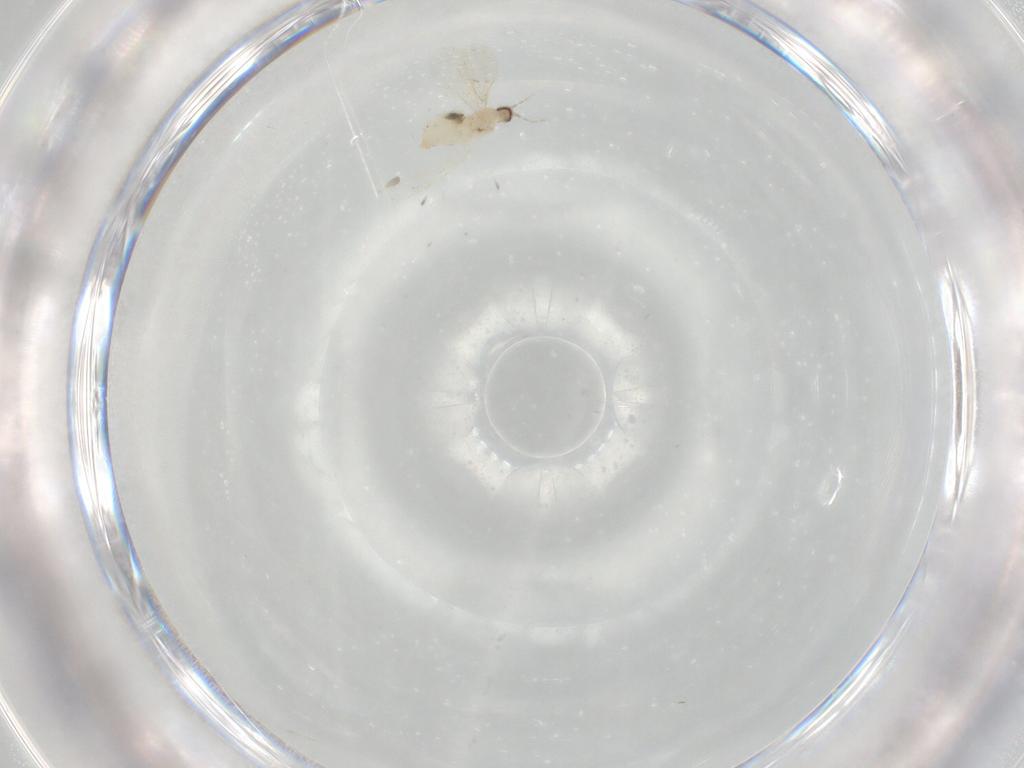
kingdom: Animalia
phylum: Arthropoda
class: Insecta
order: Diptera
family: Cecidomyiidae
